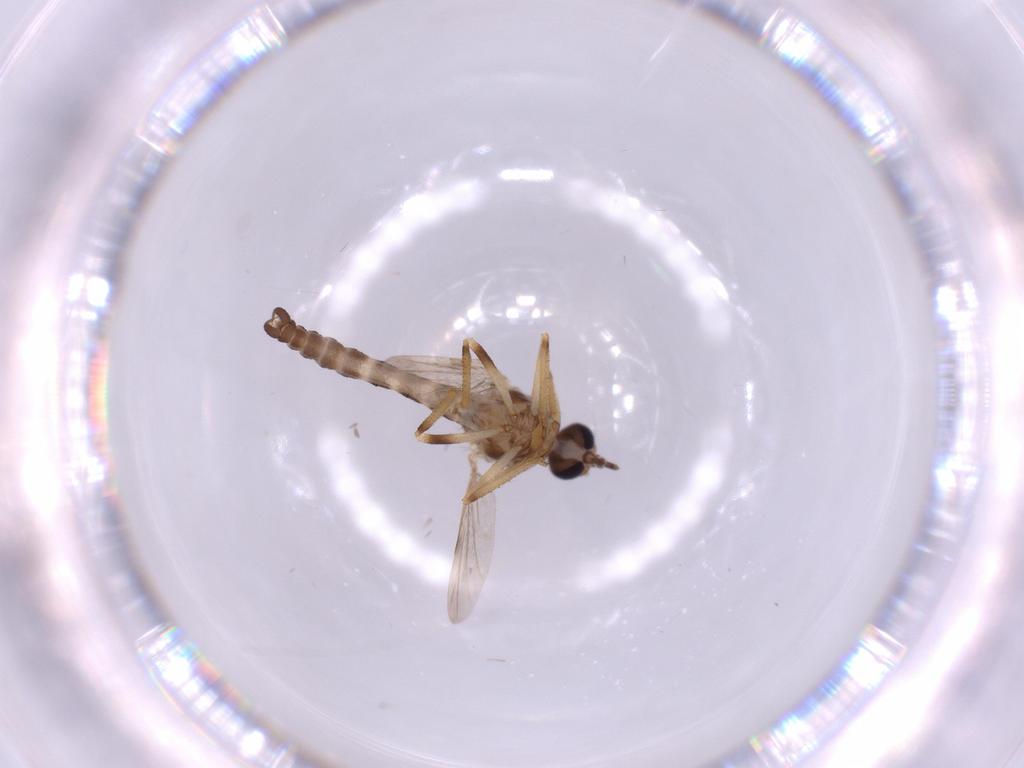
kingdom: Animalia
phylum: Arthropoda
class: Insecta
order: Diptera
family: Ceratopogonidae
